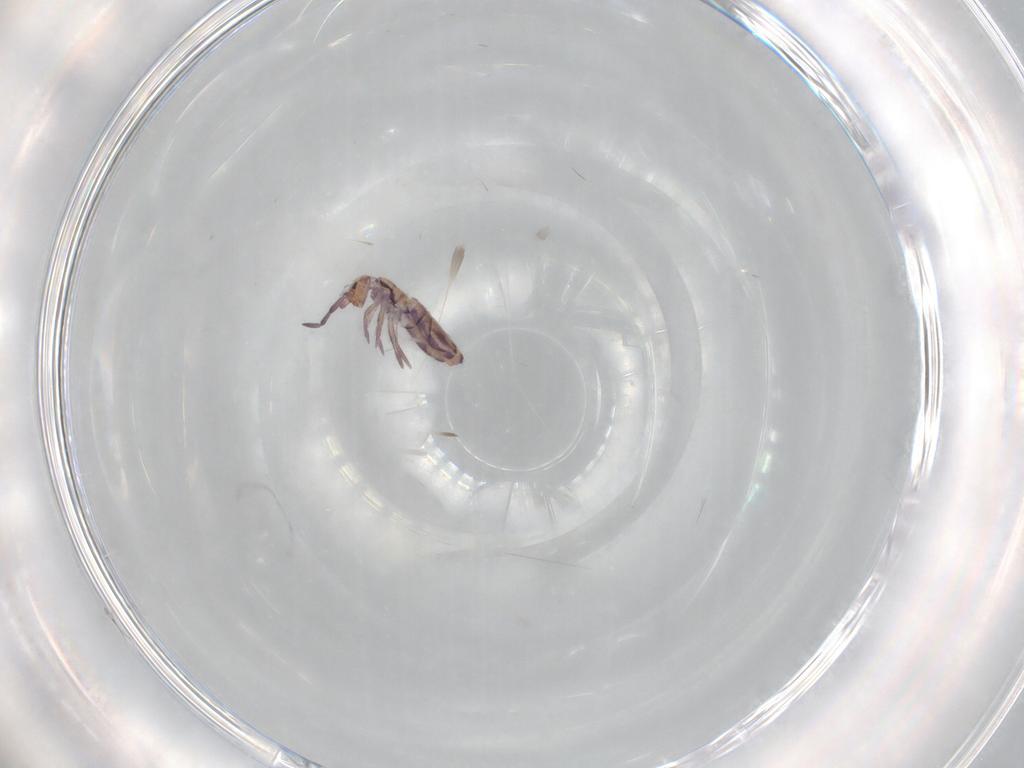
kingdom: Animalia
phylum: Arthropoda
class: Collembola
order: Entomobryomorpha
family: Entomobryidae
